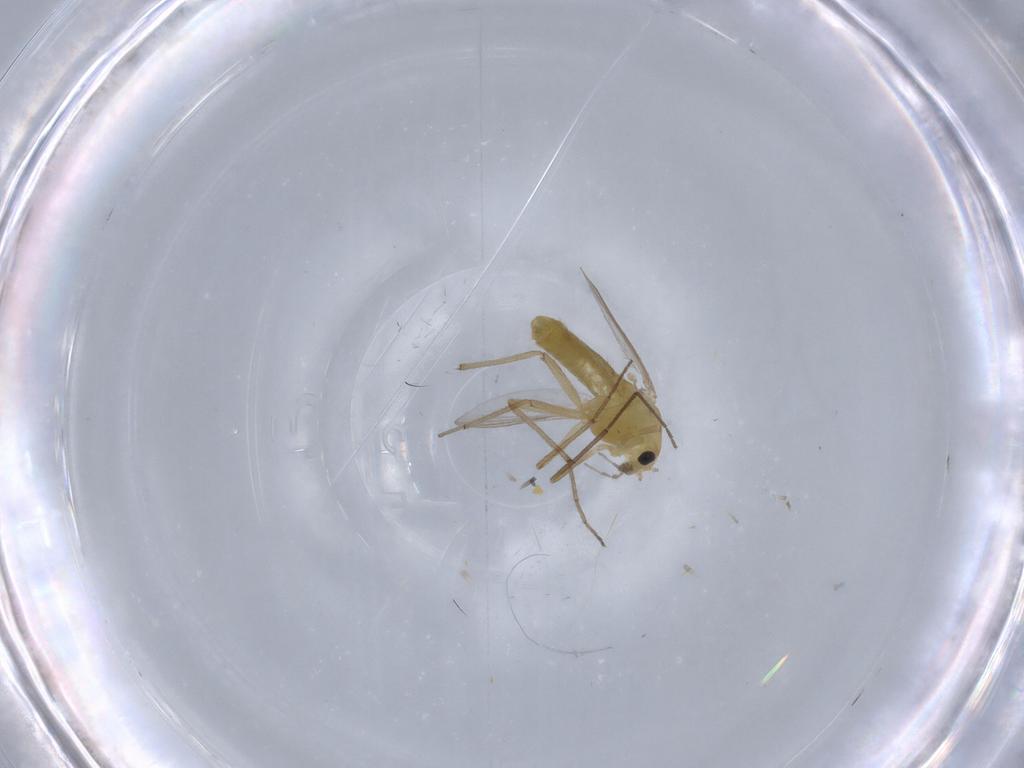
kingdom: Animalia
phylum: Arthropoda
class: Insecta
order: Diptera
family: Chironomidae
